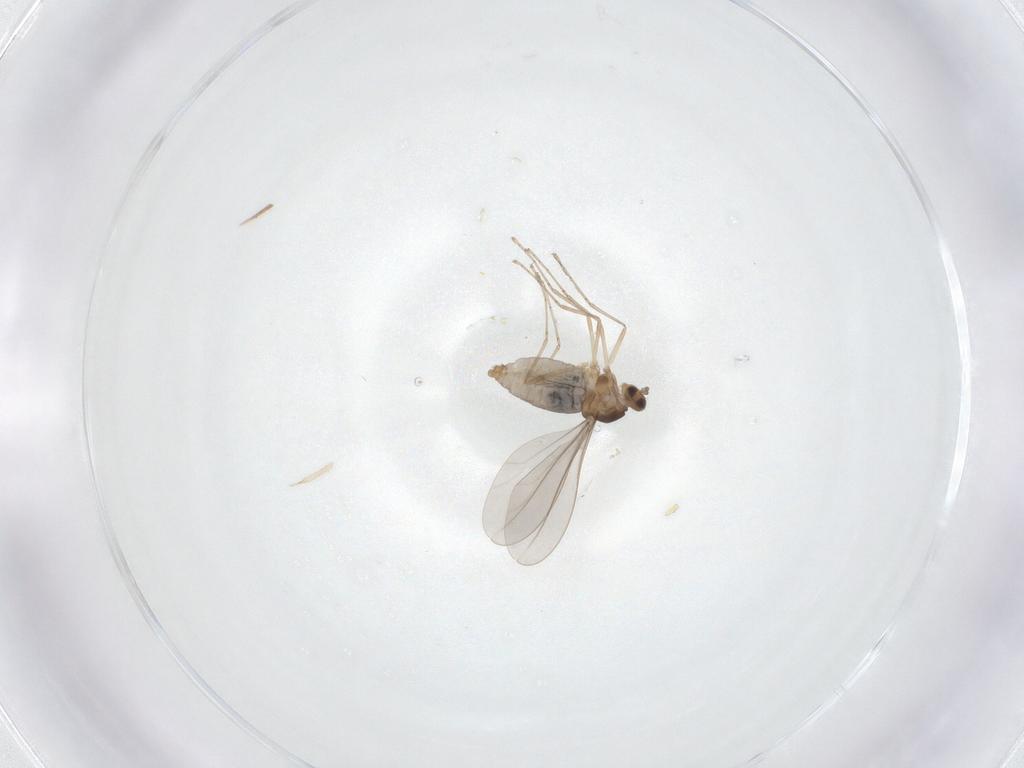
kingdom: Animalia
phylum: Arthropoda
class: Insecta
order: Diptera
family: Cecidomyiidae
